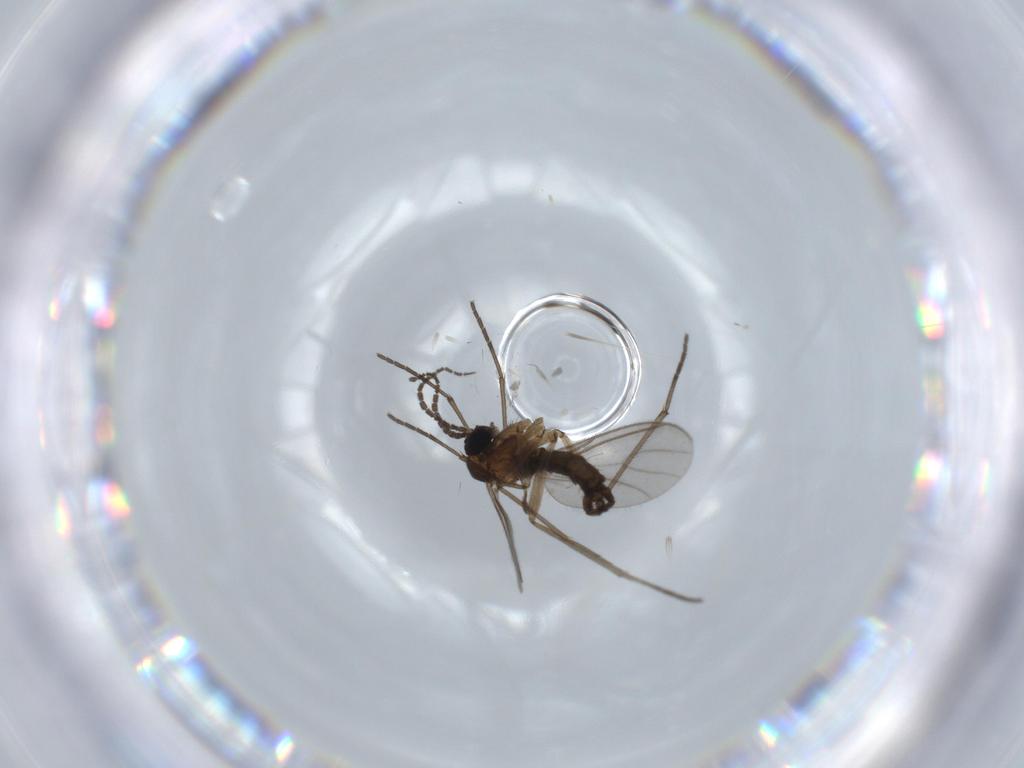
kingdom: Animalia
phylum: Arthropoda
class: Insecta
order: Diptera
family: Sciaridae
